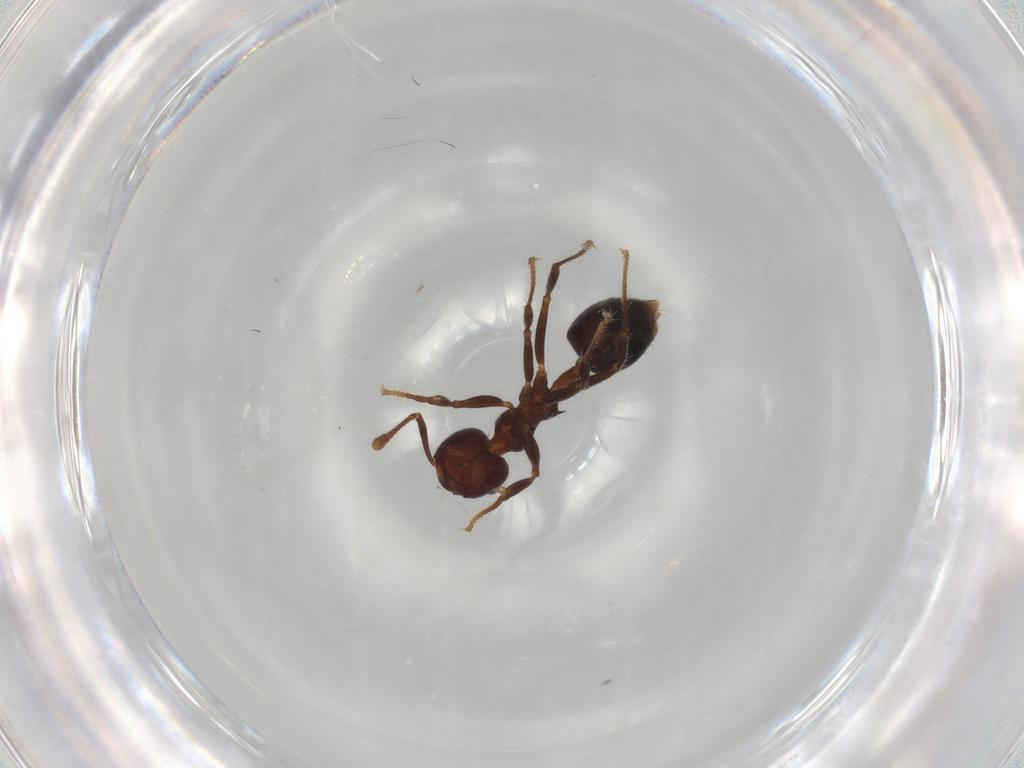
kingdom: Animalia
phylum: Arthropoda
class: Insecta
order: Hymenoptera
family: Formicidae
